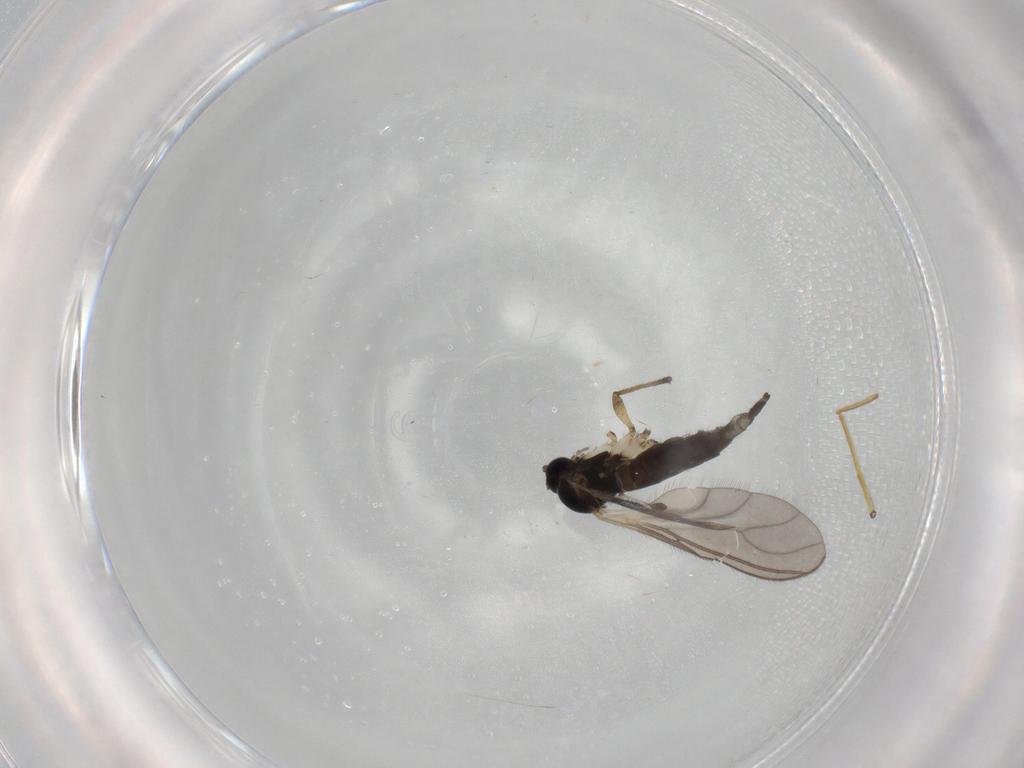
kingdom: Animalia
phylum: Arthropoda
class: Insecta
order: Diptera
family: Sciaridae
